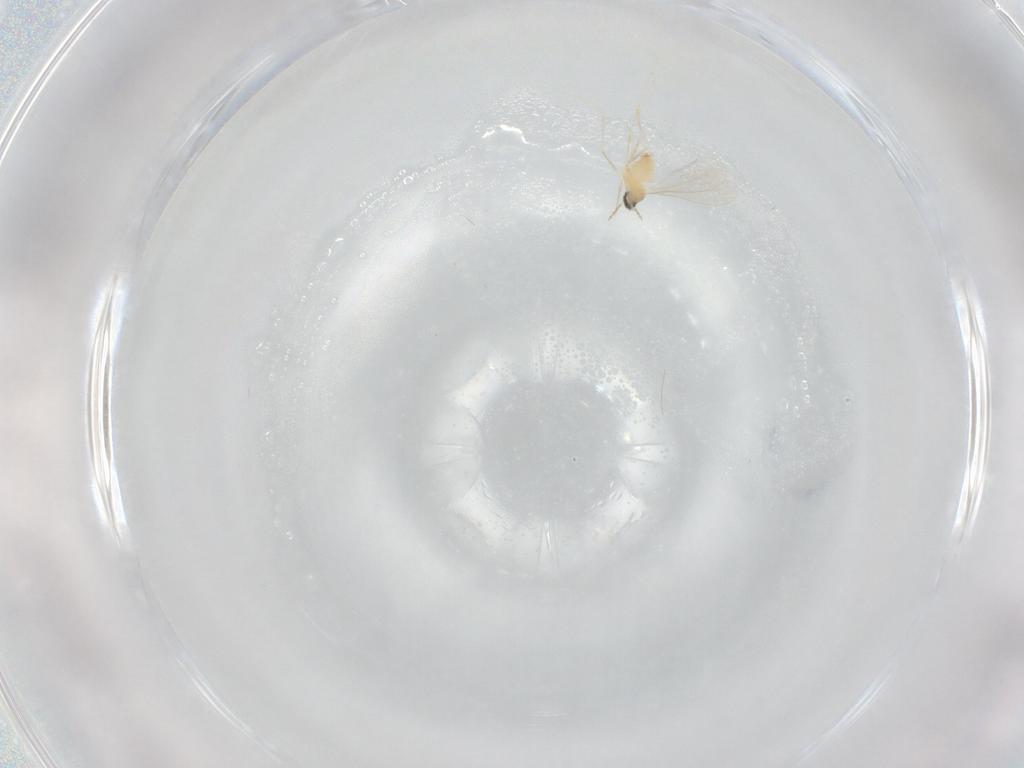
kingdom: Animalia
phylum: Arthropoda
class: Insecta
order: Diptera
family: Cecidomyiidae
